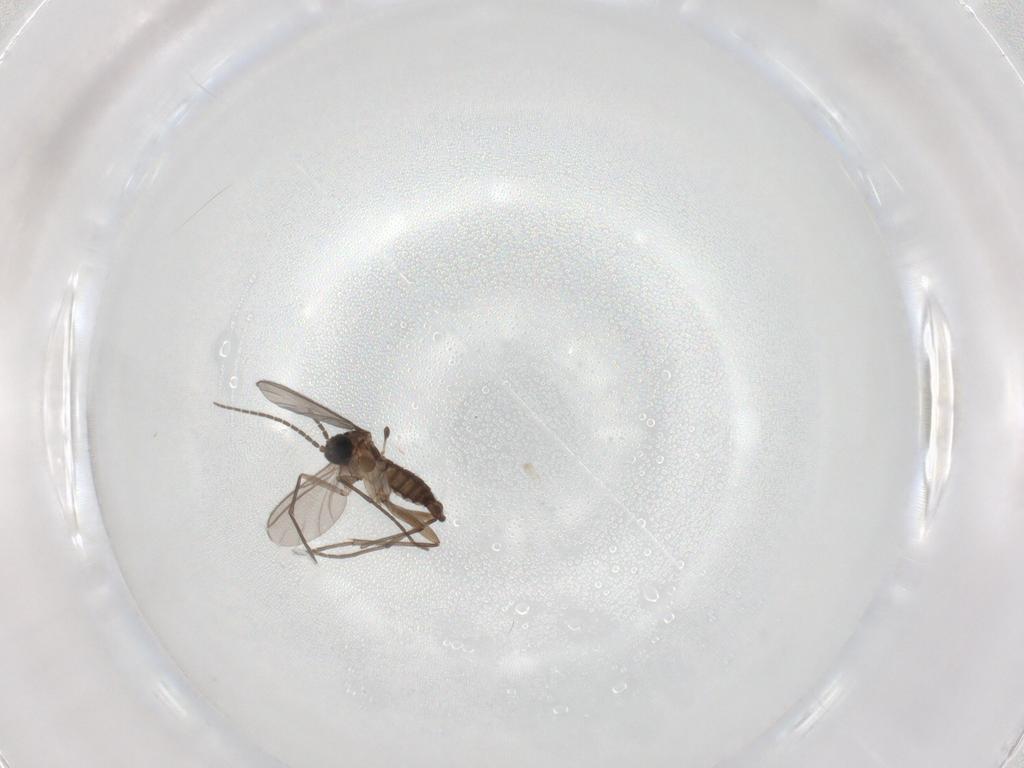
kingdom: Animalia
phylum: Arthropoda
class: Insecta
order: Diptera
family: Sciaridae
